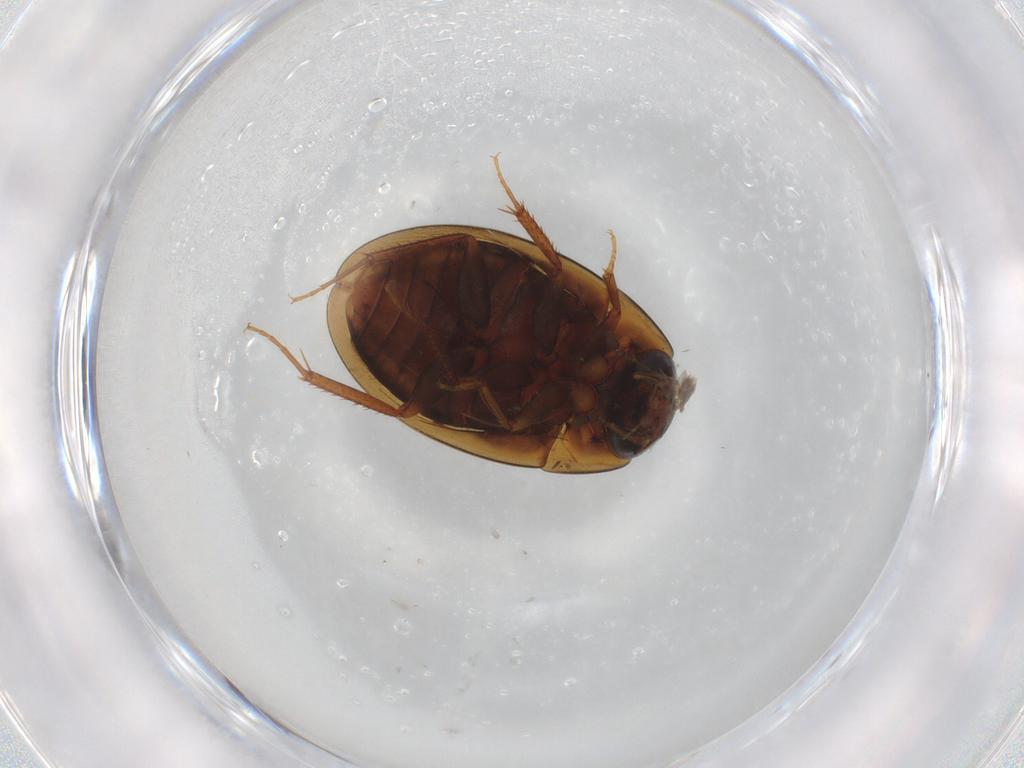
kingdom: Animalia
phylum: Arthropoda
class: Insecta
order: Coleoptera
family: Hydrophilidae
